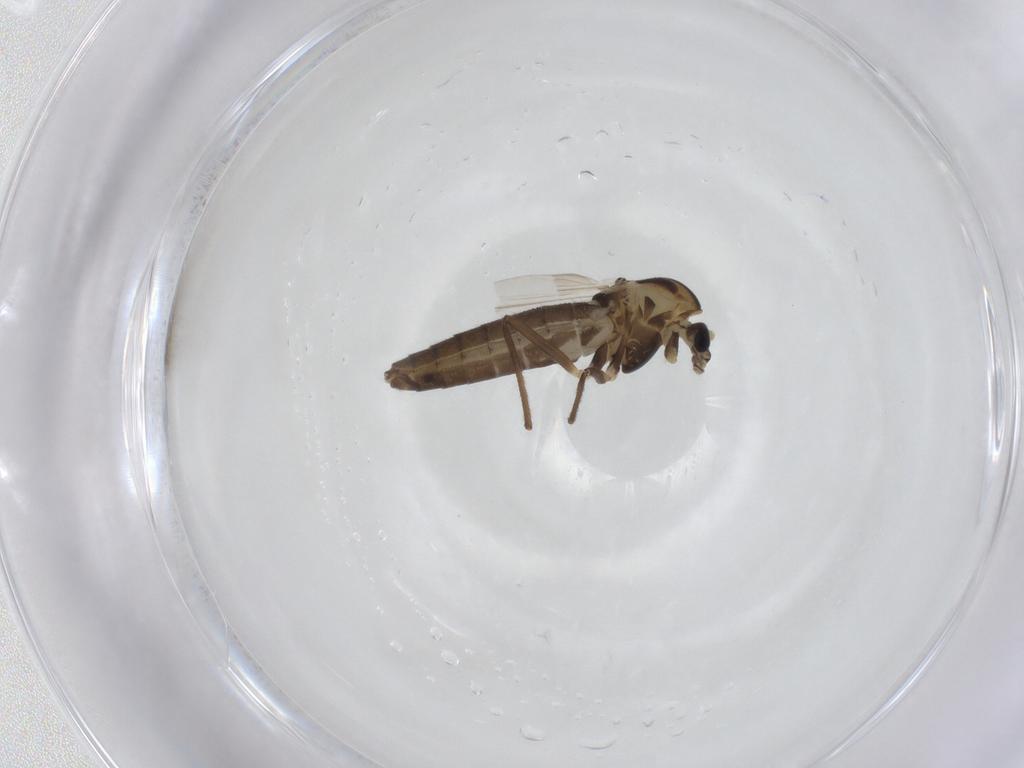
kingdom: Animalia
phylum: Arthropoda
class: Insecta
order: Diptera
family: Chironomidae
